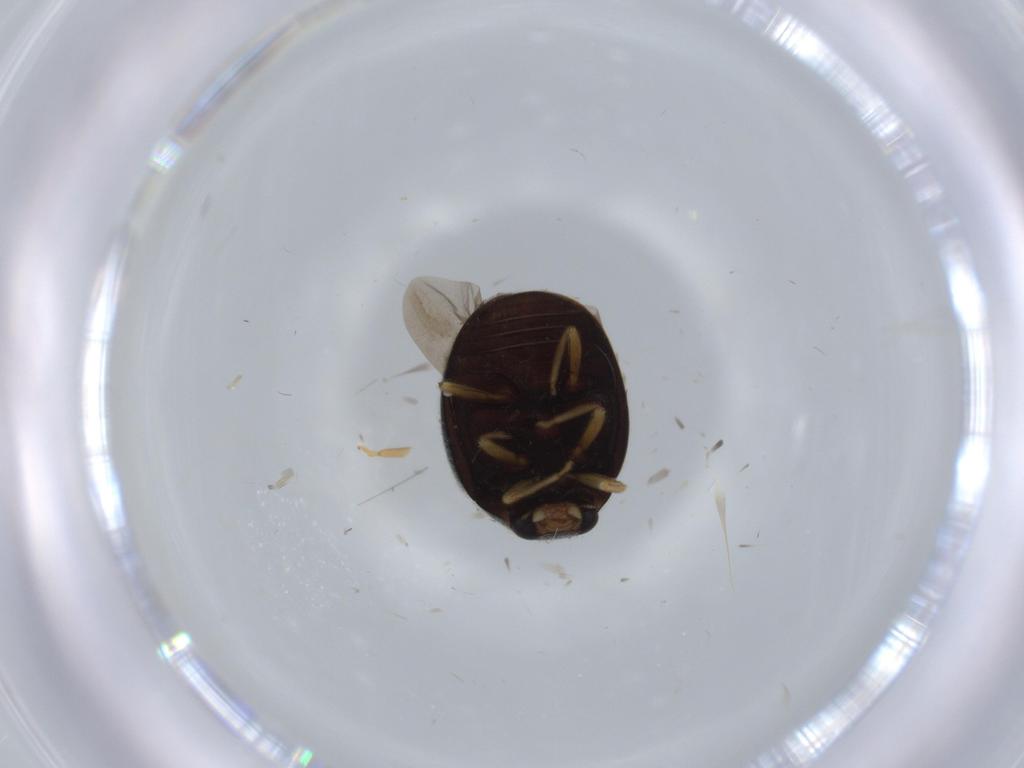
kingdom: Animalia
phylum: Arthropoda
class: Insecta
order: Coleoptera
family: Coccinellidae
